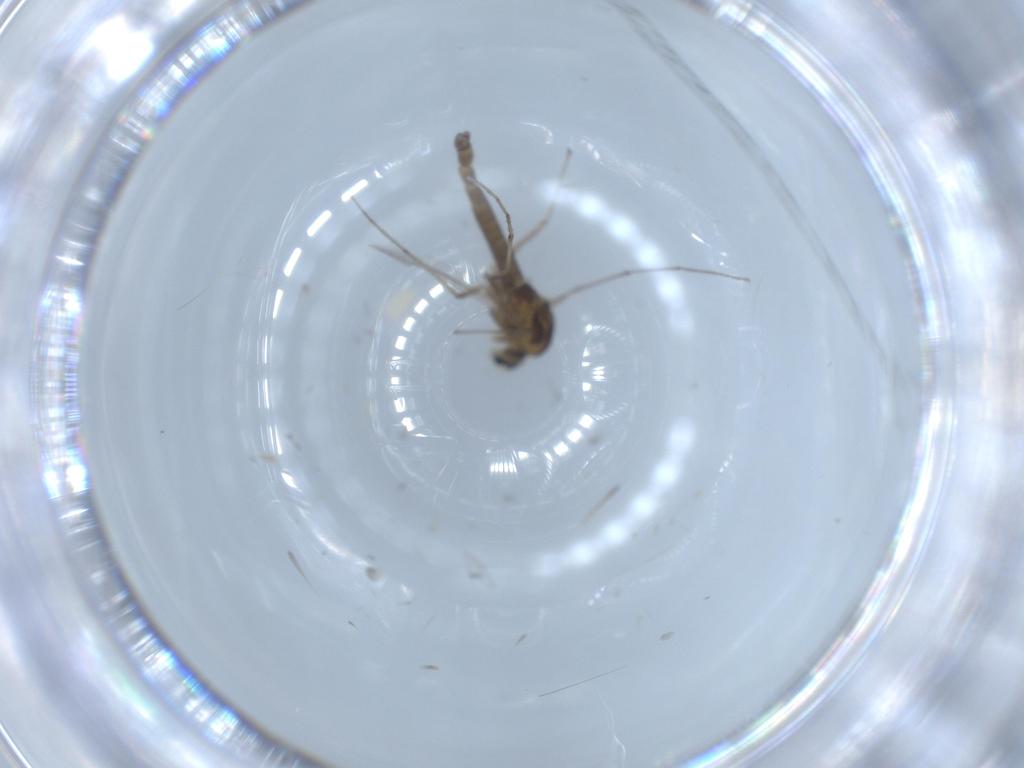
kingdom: Animalia
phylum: Arthropoda
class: Insecta
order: Diptera
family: Chironomidae
